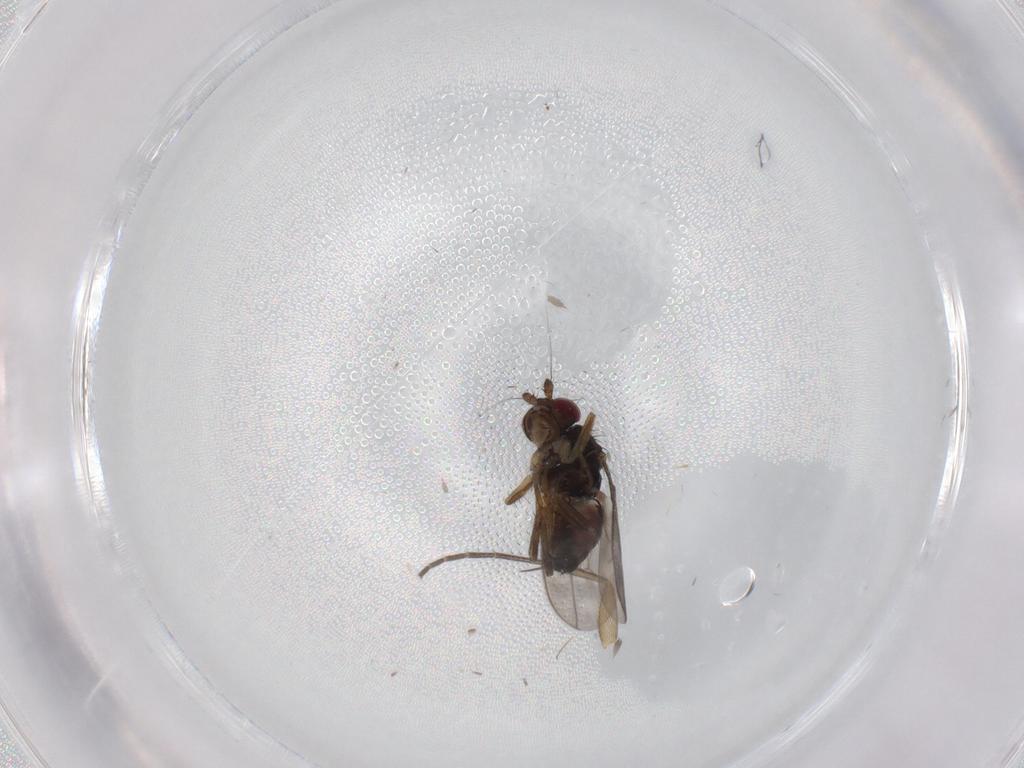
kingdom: Animalia
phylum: Arthropoda
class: Insecta
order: Diptera
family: Sphaeroceridae
